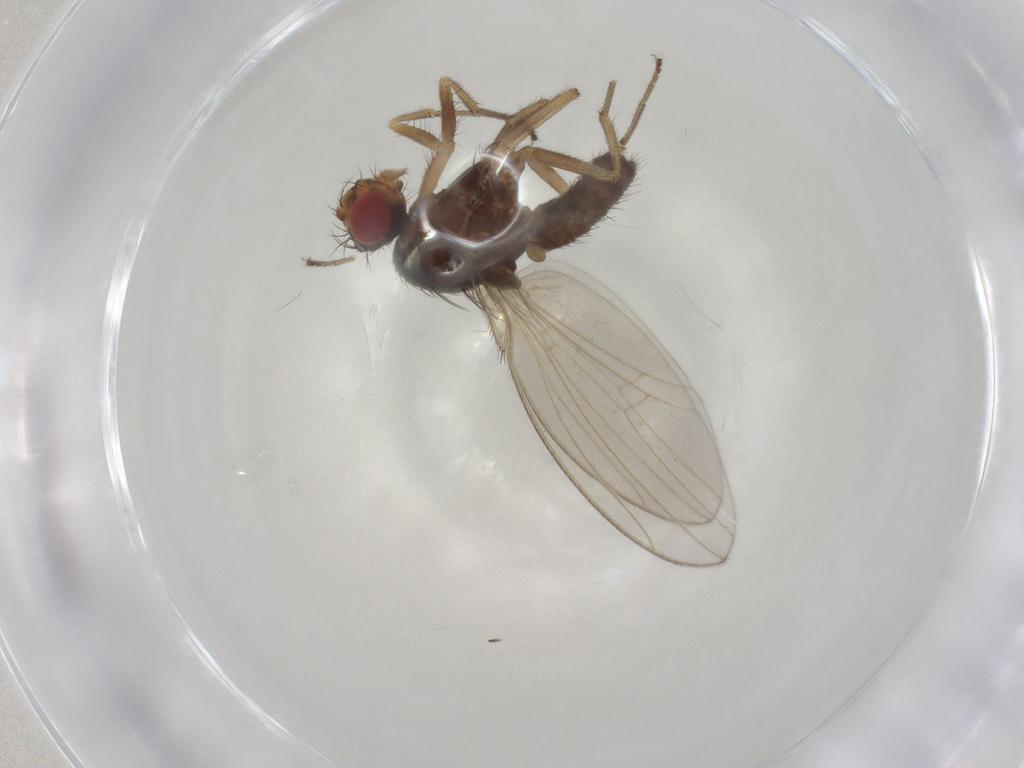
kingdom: Animalia
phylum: Arthropoda
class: Insecta
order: Diptera
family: Drosophilidae
